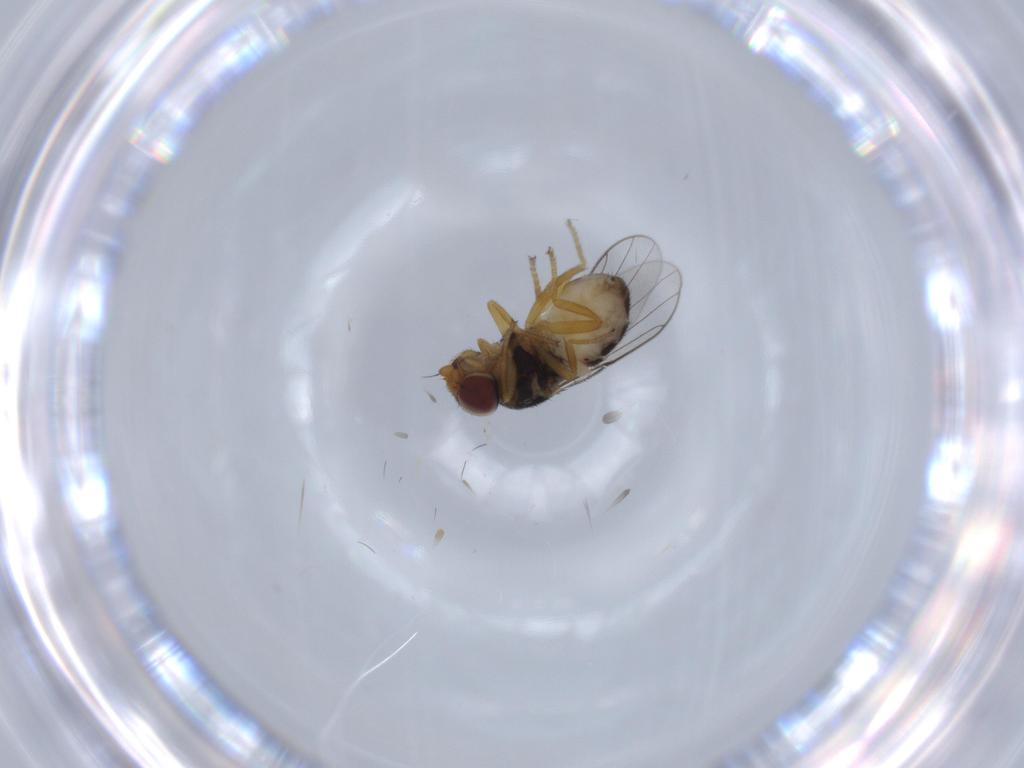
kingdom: Animalia
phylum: Arthropoda
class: Insecta
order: Diptera
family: Chloropidae
